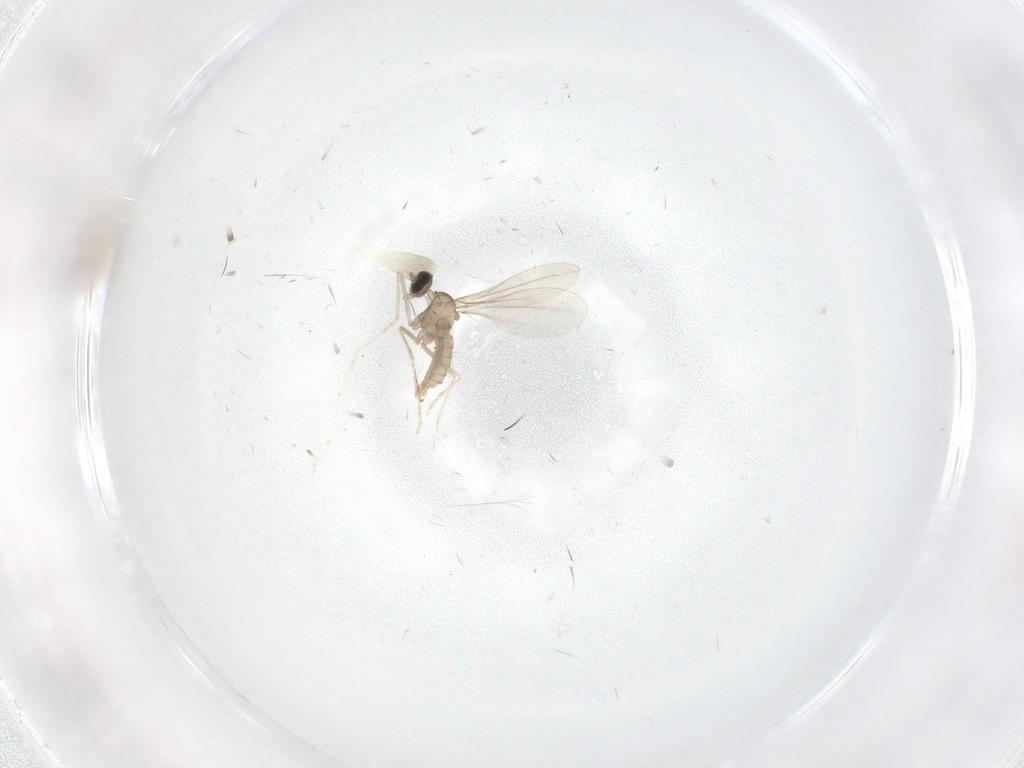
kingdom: Animalia
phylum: Arthropoda
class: Insecta
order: Diptera
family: Cecidomyiidae
